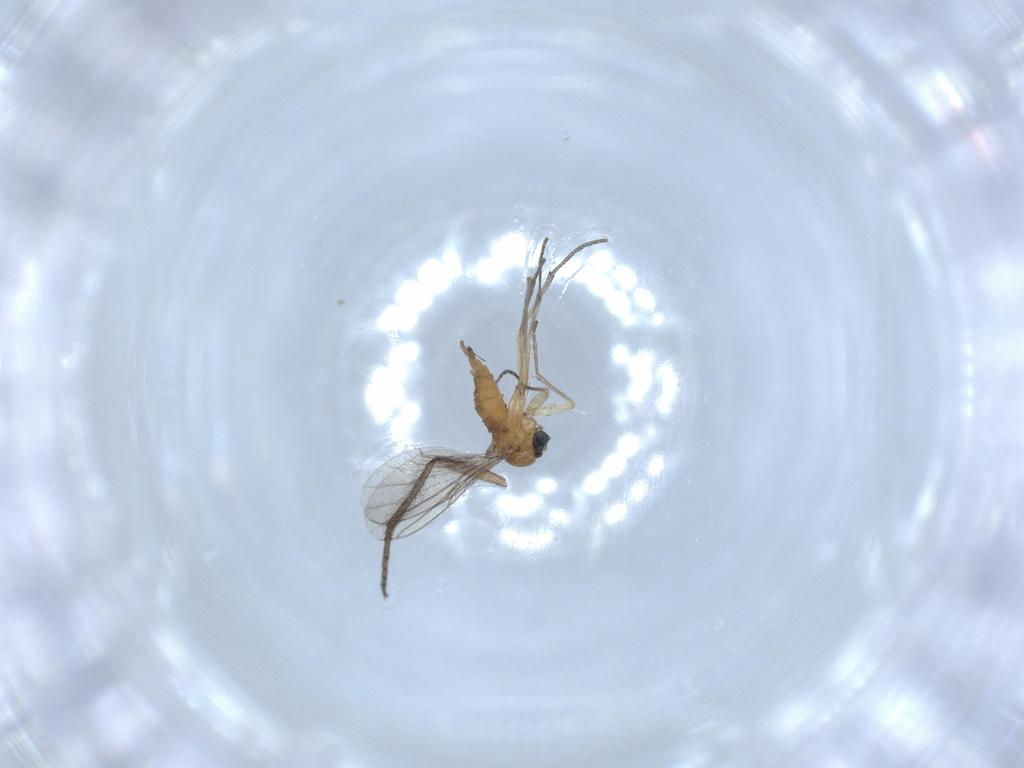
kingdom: Animalia
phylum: Arthropoda
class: Insecta
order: Diptera
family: Sciaridae
